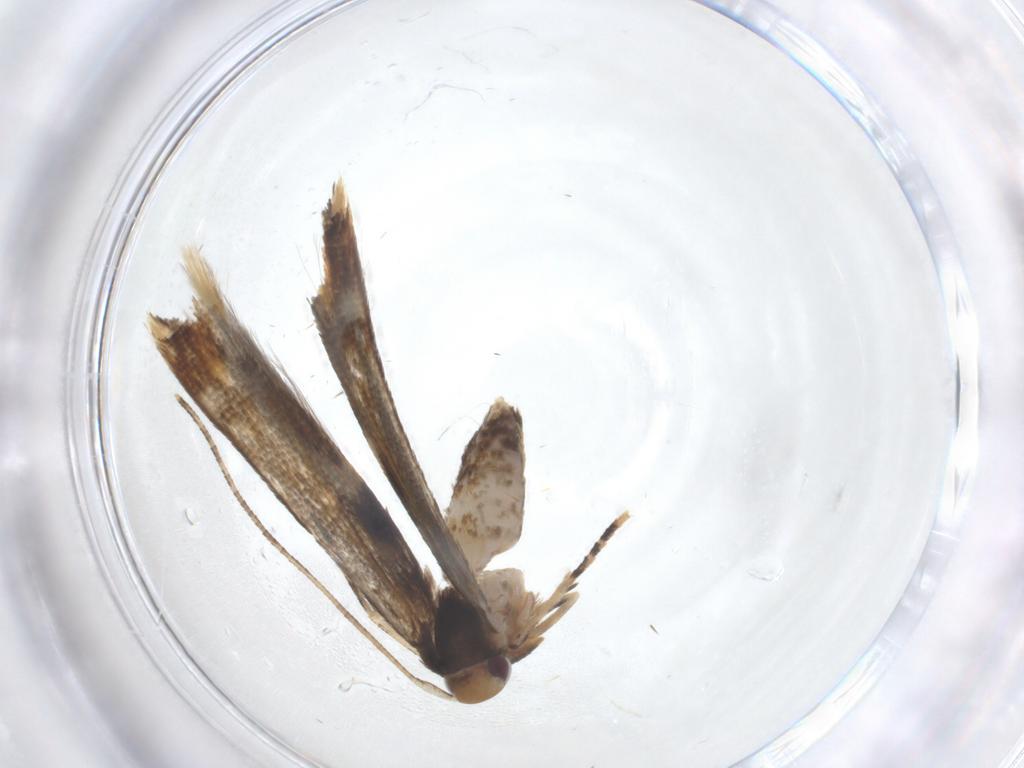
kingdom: Animalia
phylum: Arthropoda
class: Insecta
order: Lepidoptera
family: Momphidae
